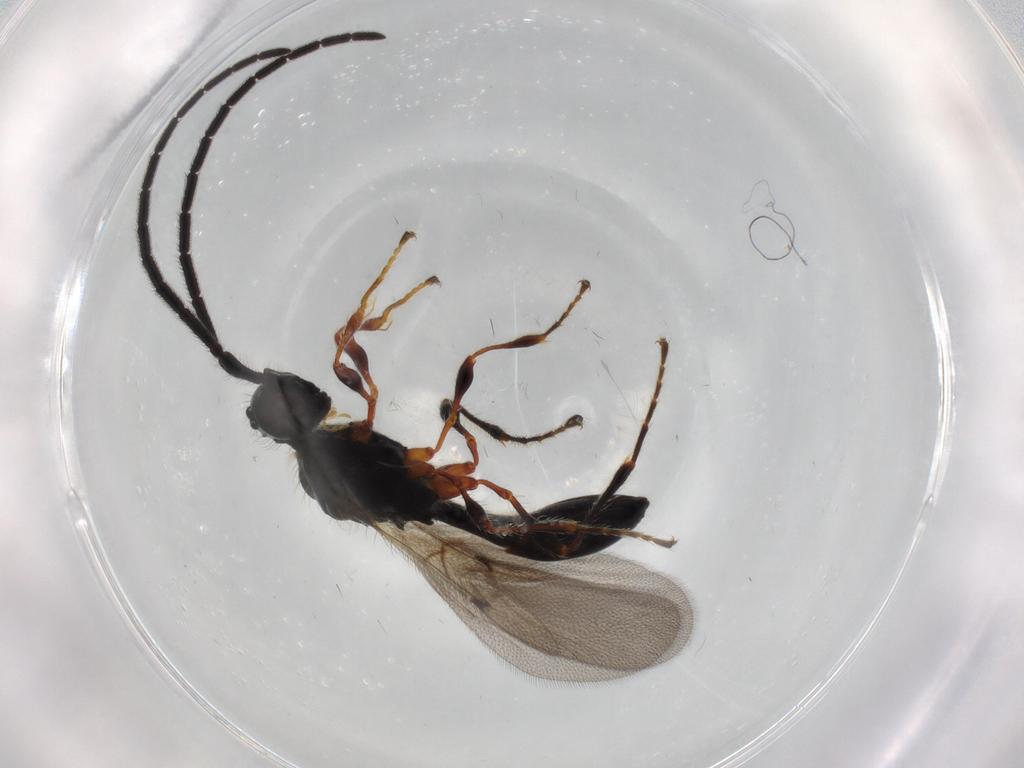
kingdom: Animalia
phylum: Arthropoda
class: Insecta
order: Hymenoptera
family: Diapriidae
